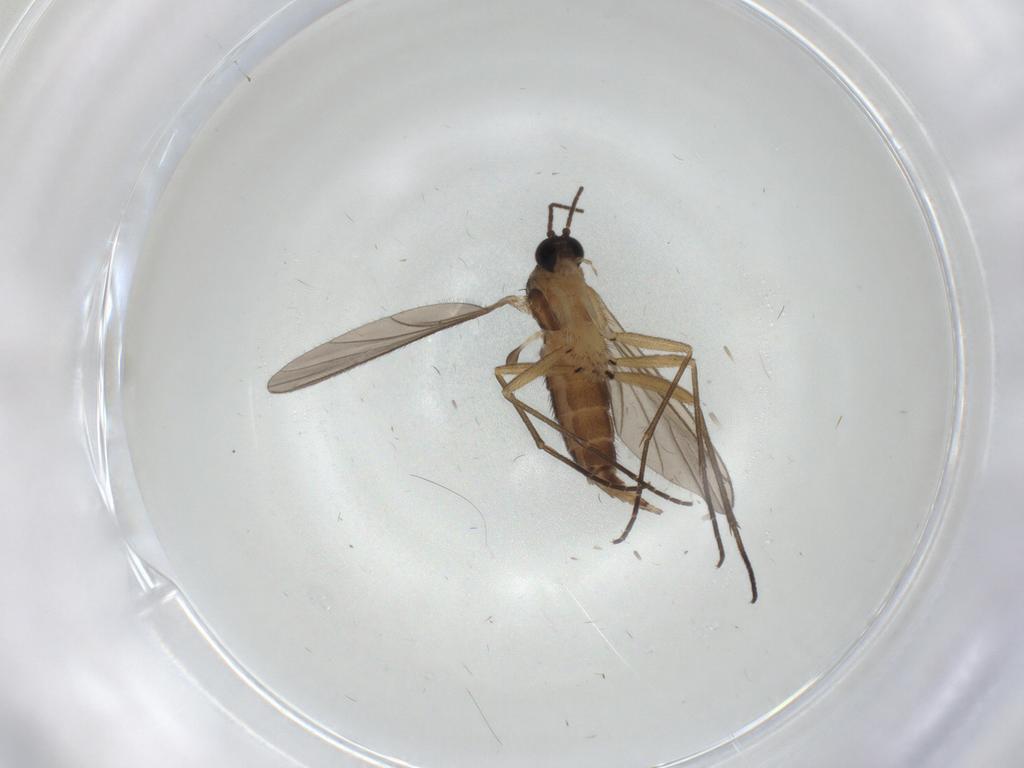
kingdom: Animalia
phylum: Arthropoda
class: Insecta
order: Diptera
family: Sciaridae
